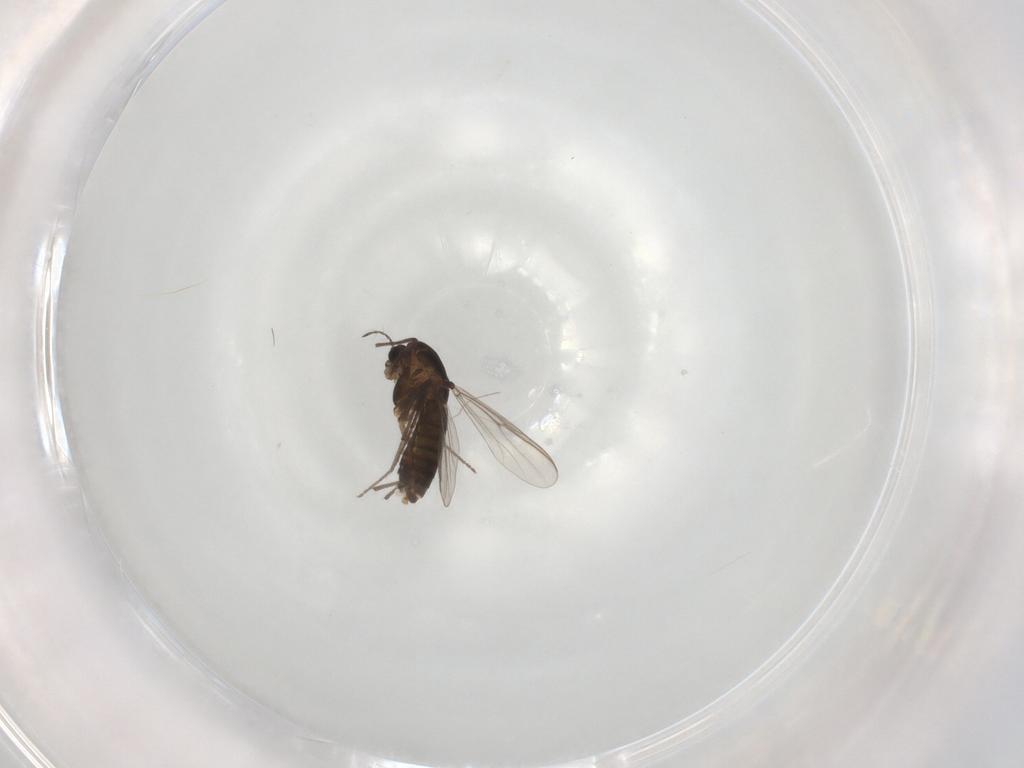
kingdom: Animalia
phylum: Arthropoda
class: Insecta
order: Diptera
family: Chironomidae
